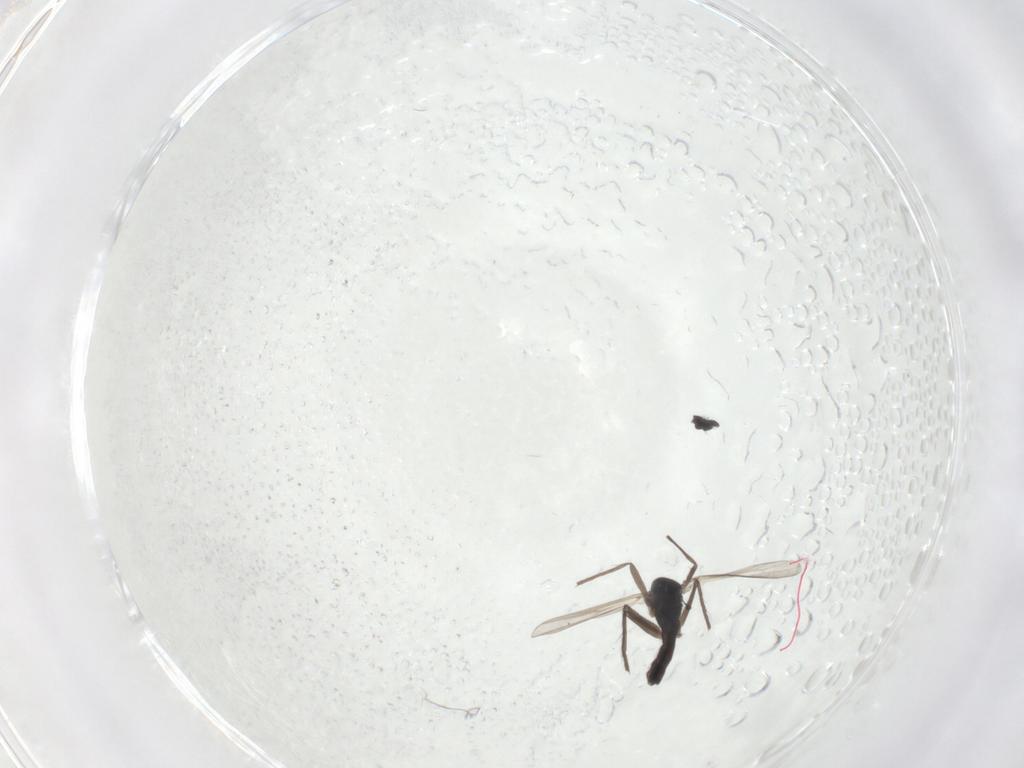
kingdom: Animalia
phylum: Arthropoda
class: Insecta
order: Diptera
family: Chironomidae
